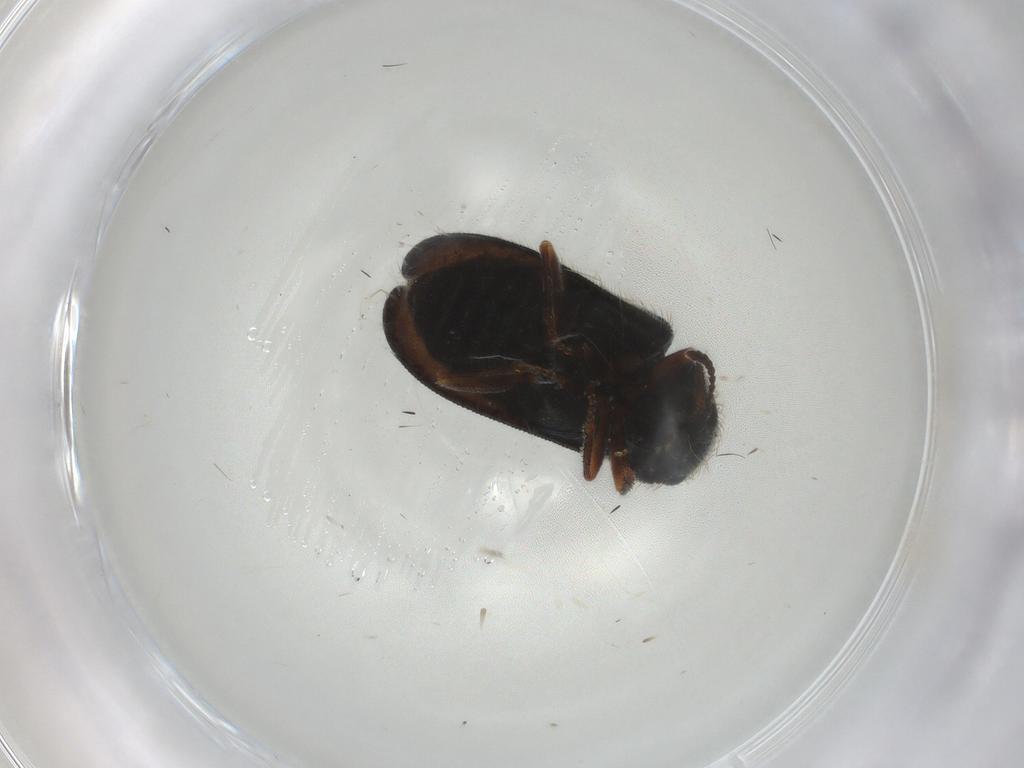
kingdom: Animalia
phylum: Arthropoda
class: Insecta
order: Coleoptera
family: Melyridae
